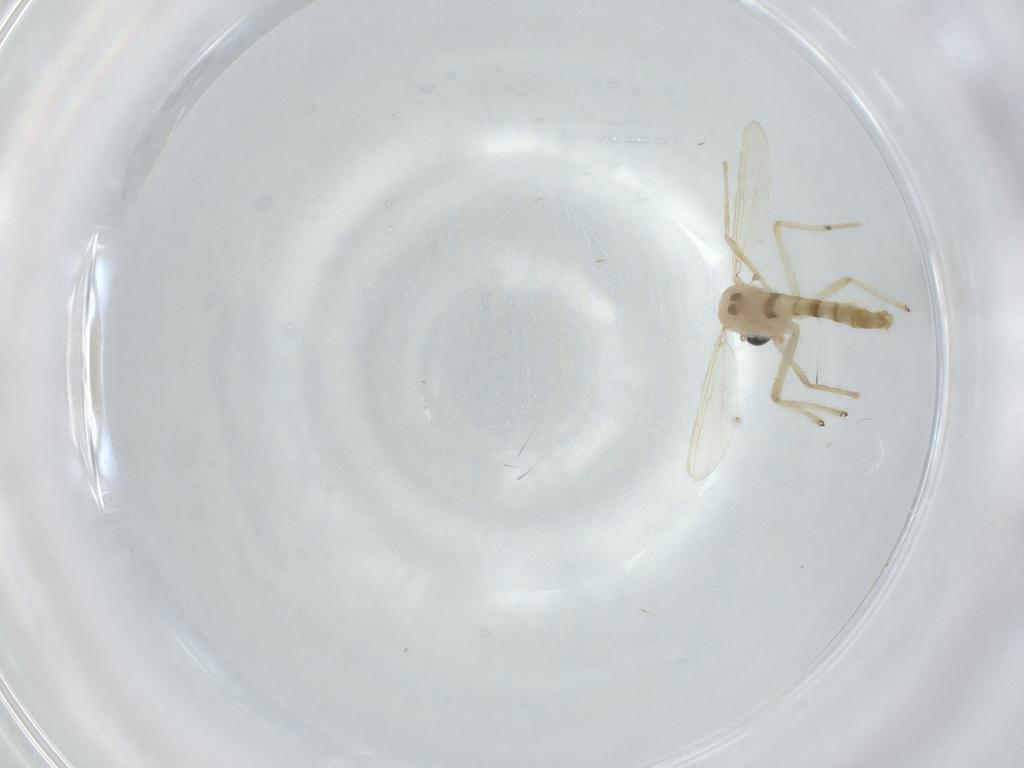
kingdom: Animalia
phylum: Arthropoda
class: Insecta
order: Diptera
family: Chironomidae
